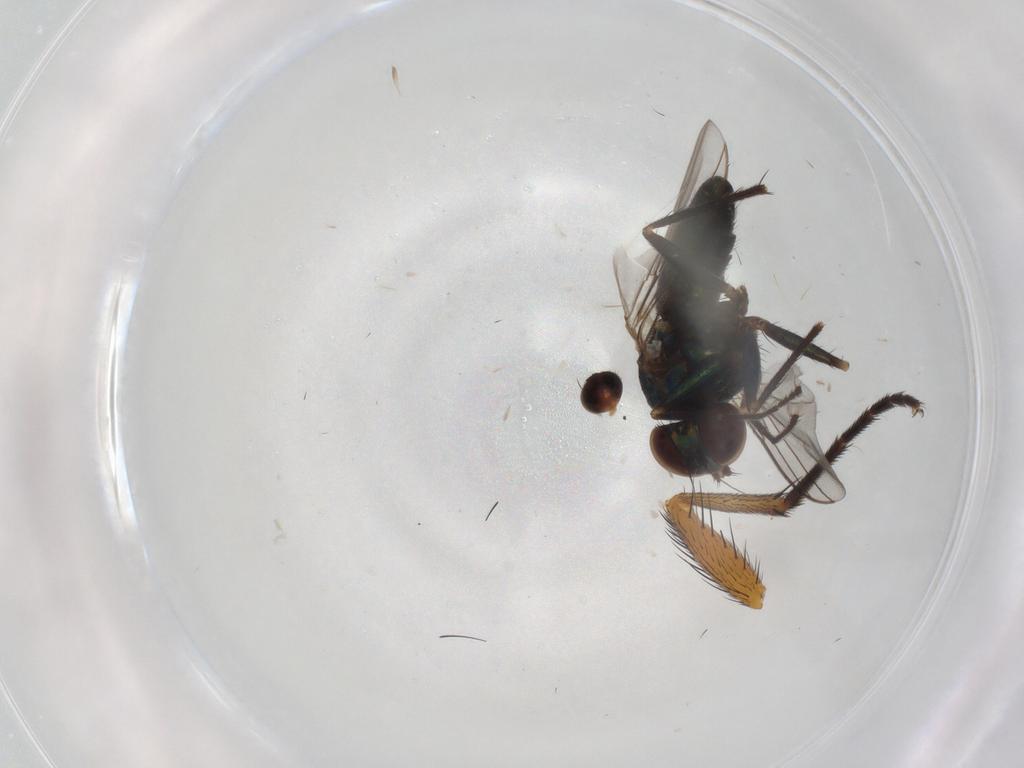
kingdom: Animalia
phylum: Arthropoda
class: Insecta
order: Diptera
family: Dolichopodidae
